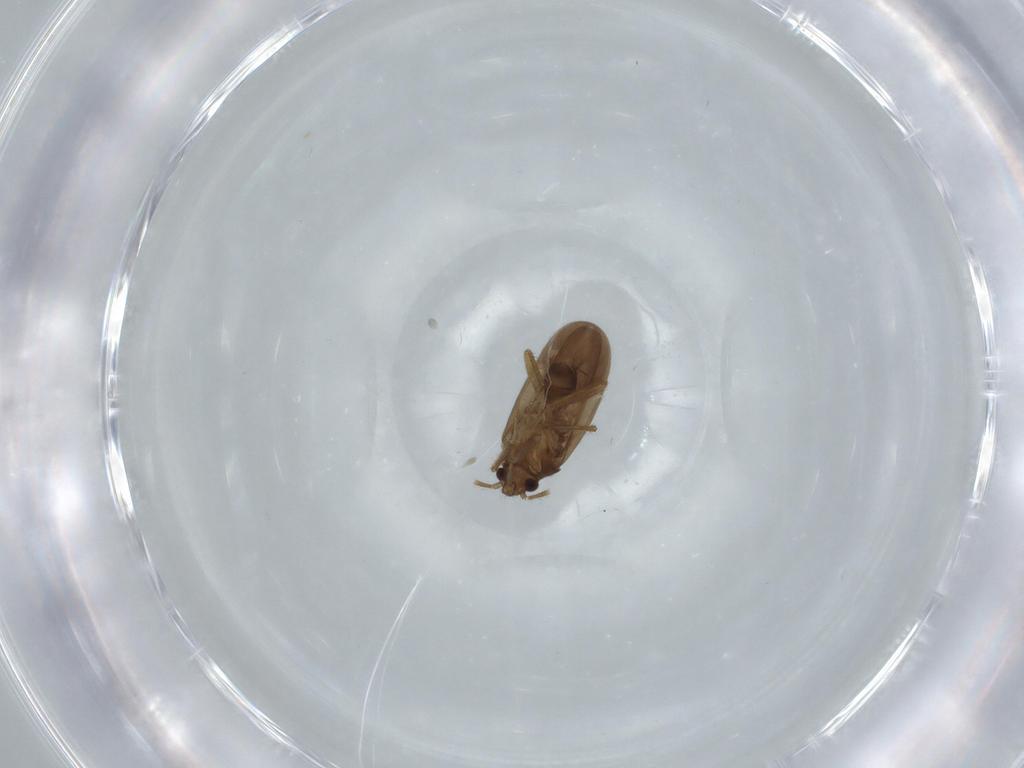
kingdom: Animalia
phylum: Arthropoda
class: Insecta
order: Hemiptera
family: Ceratocombidae
